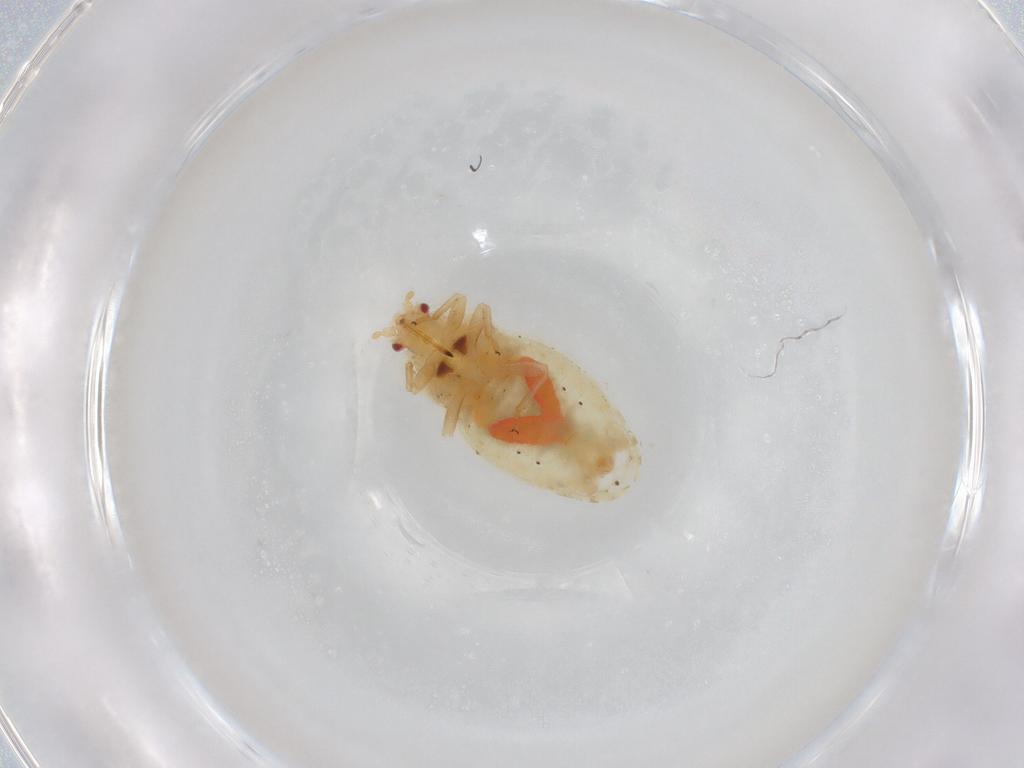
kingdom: Animalia
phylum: Arthropoda
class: Insecta
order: Hemiptera
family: Piesmatidae
